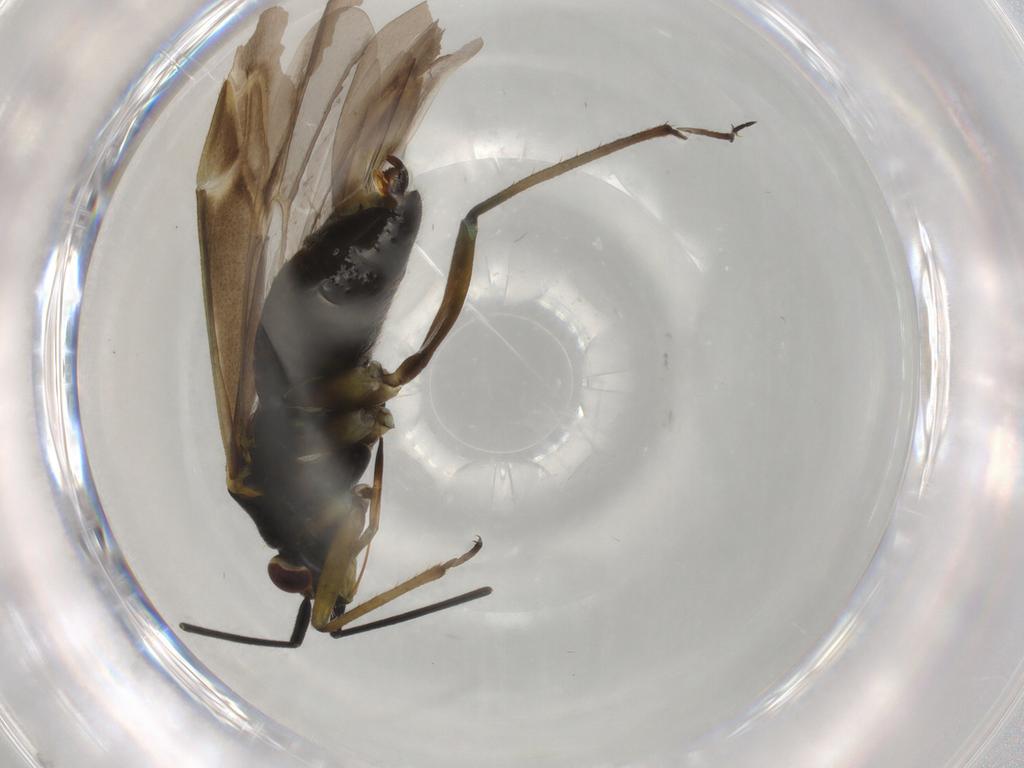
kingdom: Animalia
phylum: Arthropoda
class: Insecta
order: Hemiptera
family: Miridae
